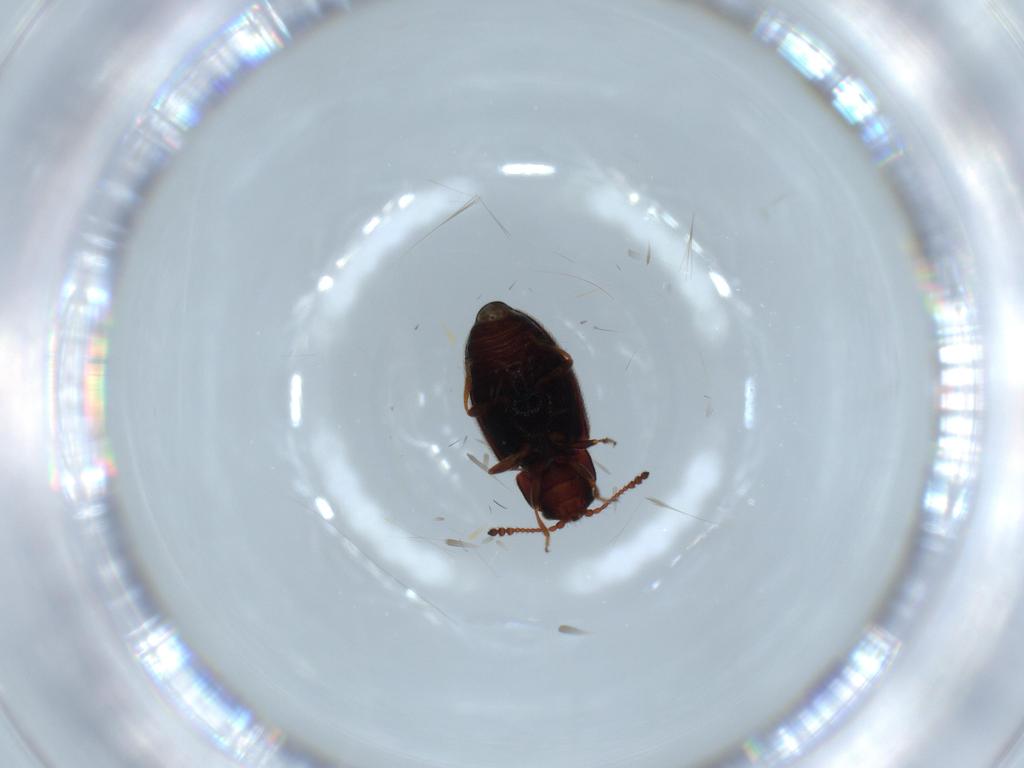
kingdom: Animalia
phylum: Arthropoda
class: Insecta
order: Coleoptera
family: Cryptophagidae
